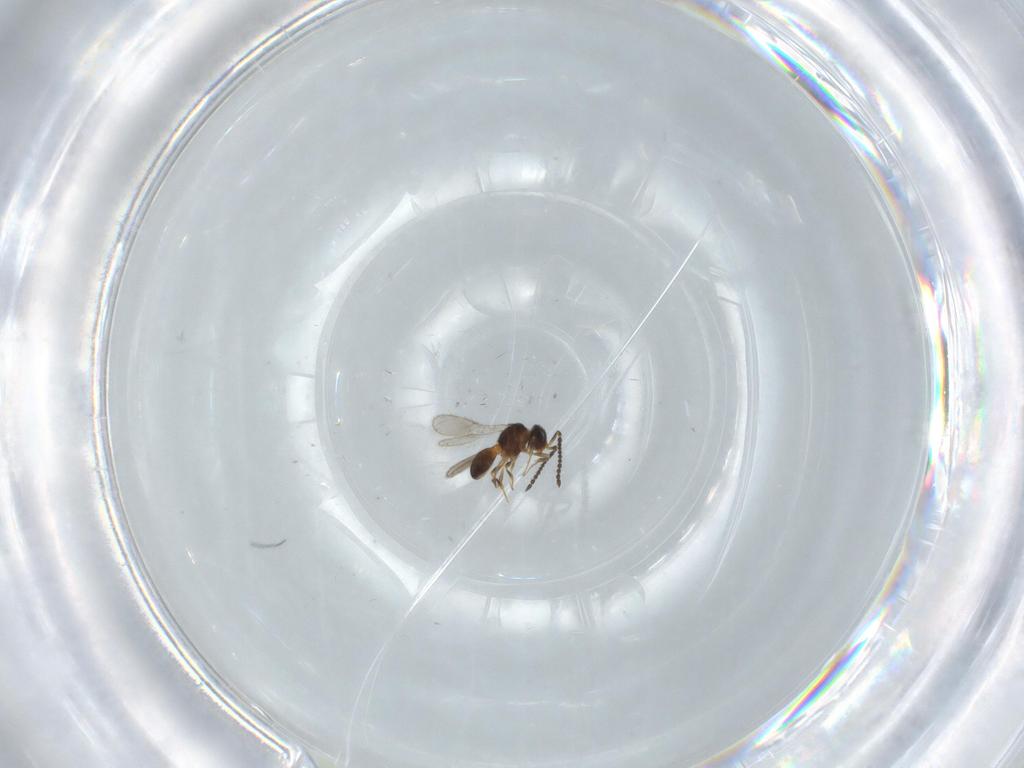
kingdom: Animalia
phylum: Arthropoda
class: Insecta
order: Hymenoptera
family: Scelionidae
